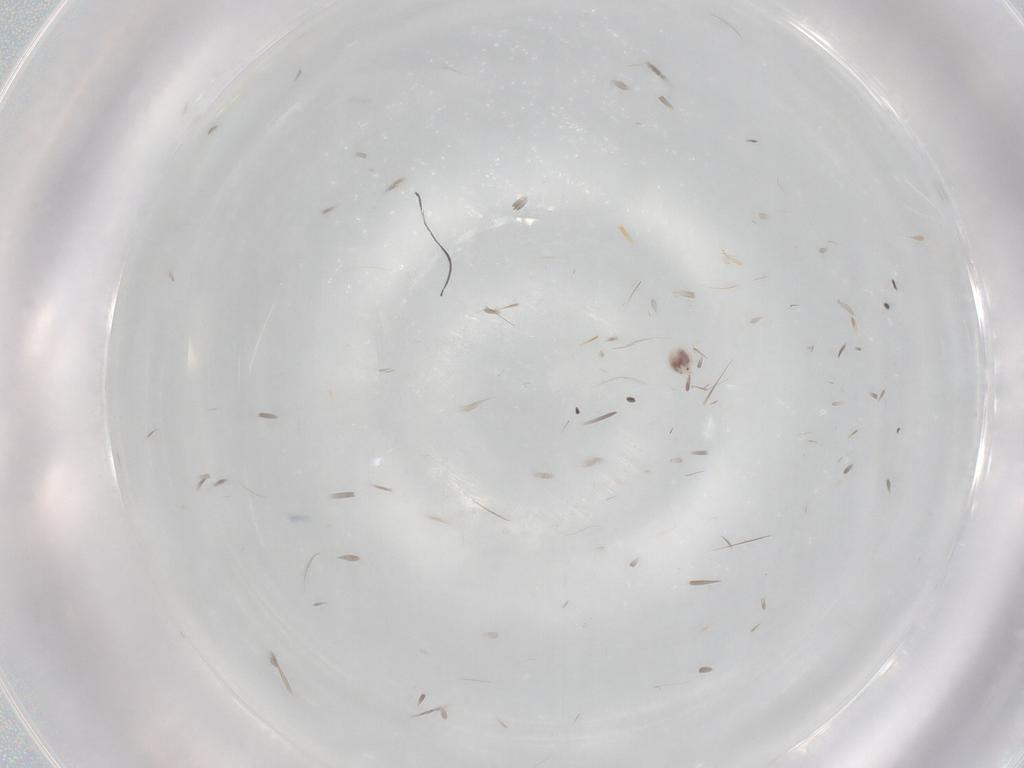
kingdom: Animalia
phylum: Arthropoda
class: Arachnida
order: Trombidiformes
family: Hygrobatidae
